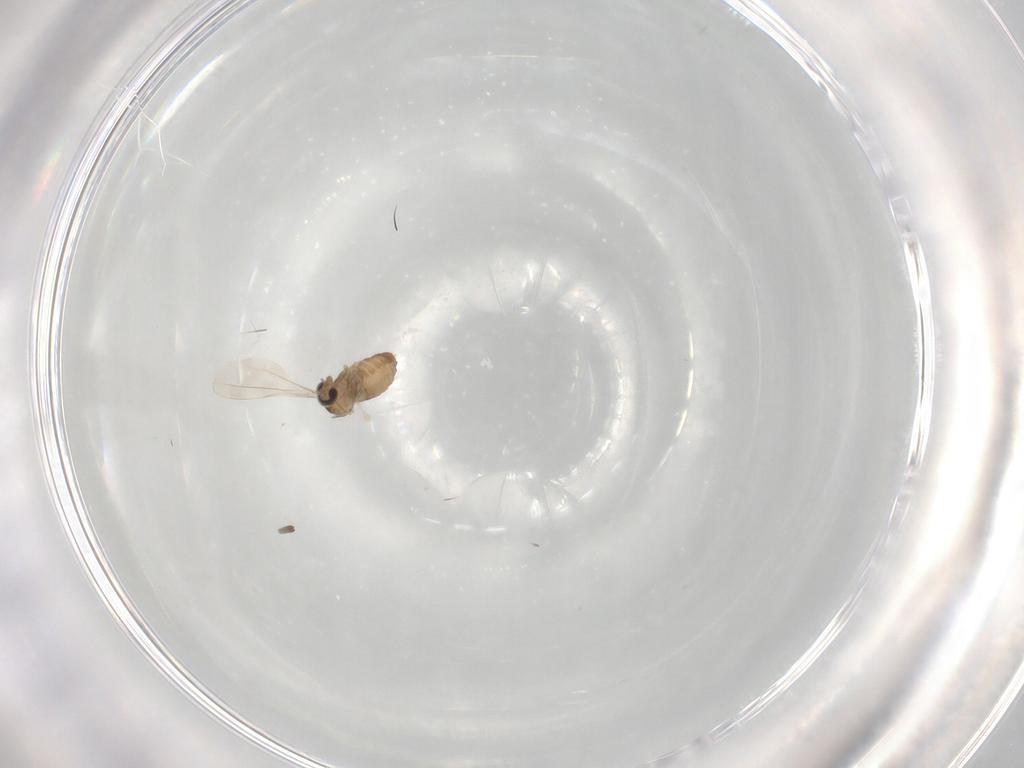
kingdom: Animalia
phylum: Arthropoda
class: Insecta
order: Diptera
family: Cecidomyiidae
